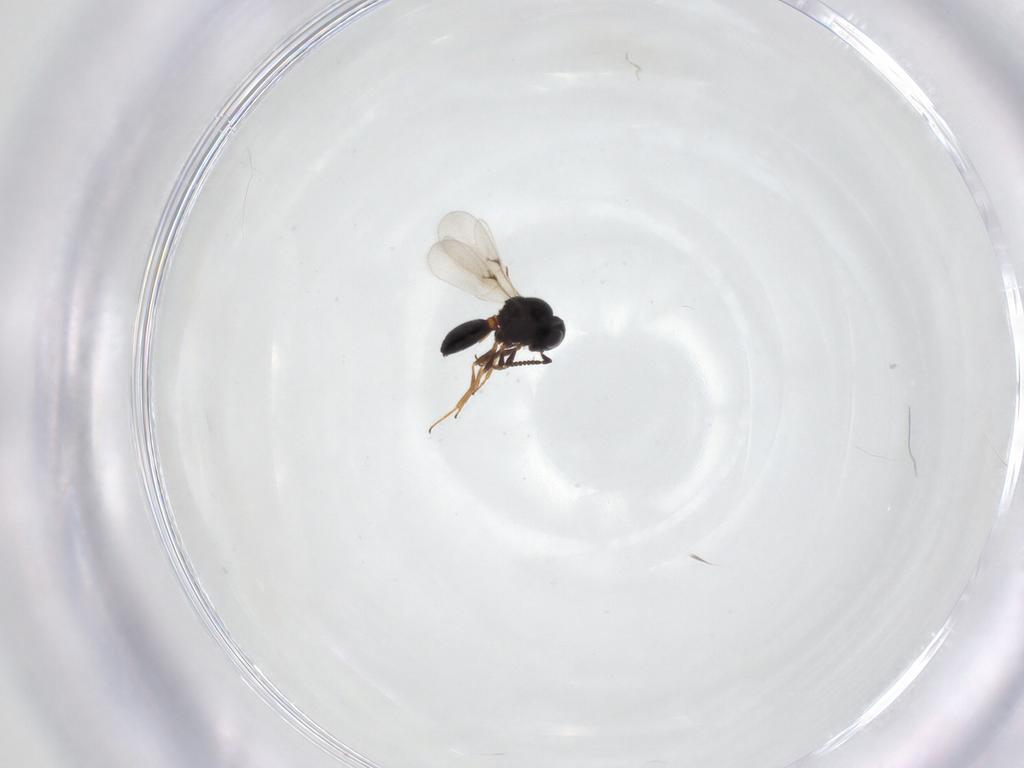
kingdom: Animalia
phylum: Arthropoda
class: Arachnida
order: Araneae
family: Pholcidae
